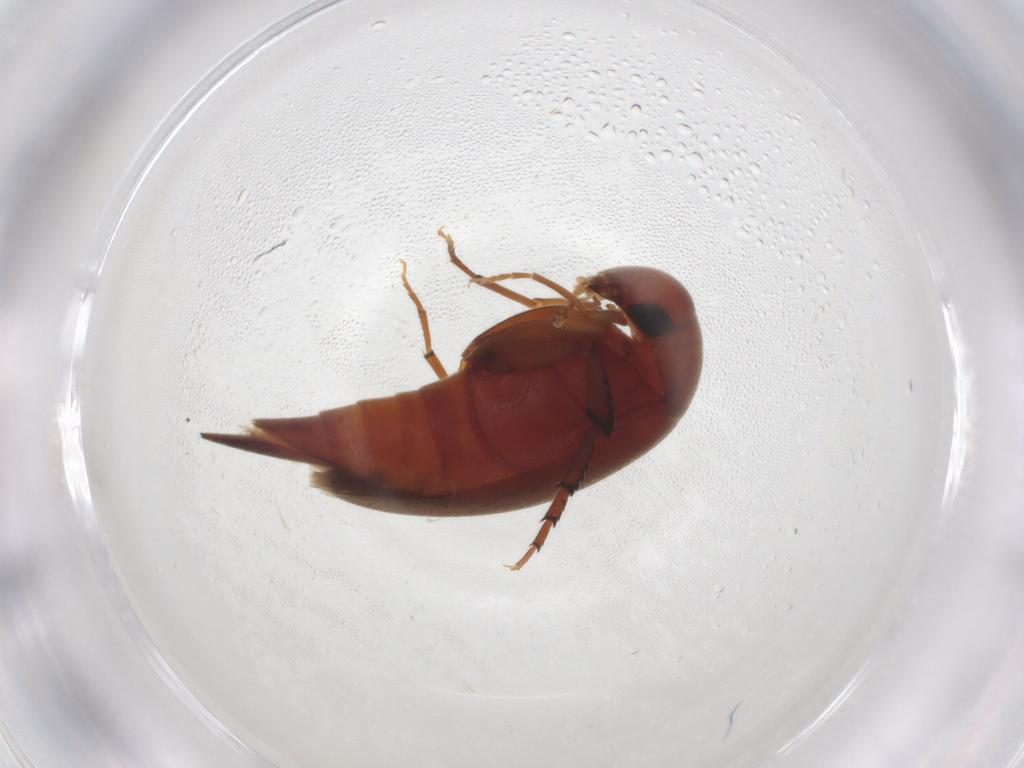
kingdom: Animalia
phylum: Arthropoda
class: Insecta
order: Coleoptera
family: Mordellidae
